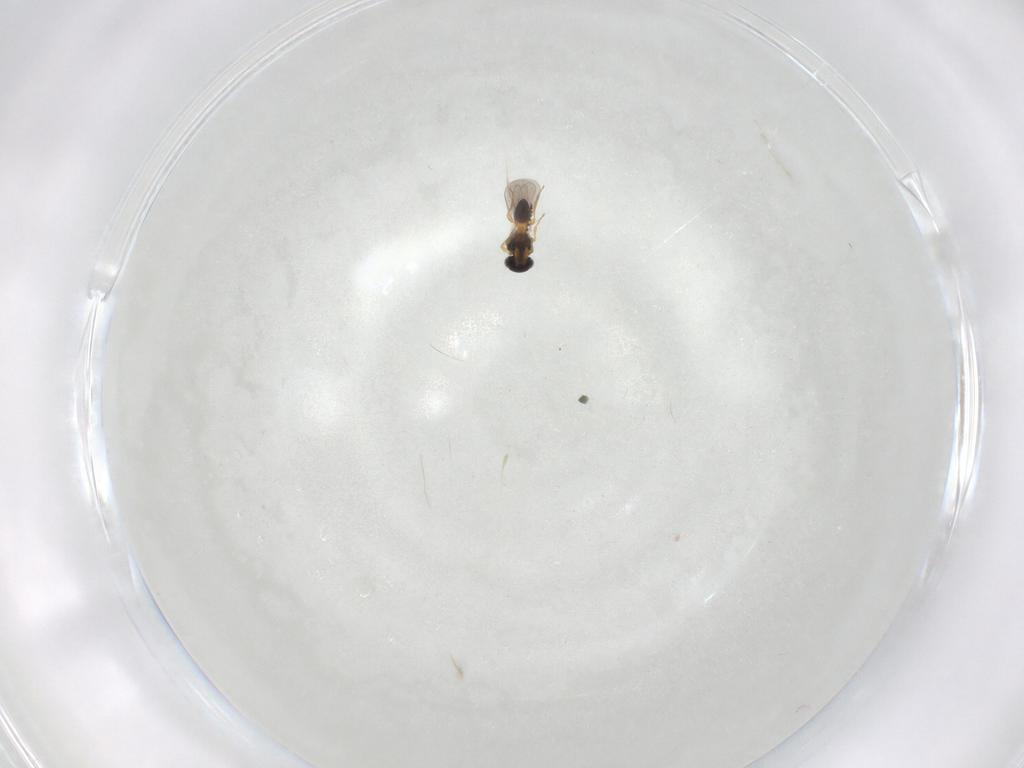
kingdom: Animalia
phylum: Arthropoda
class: Insecta
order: Hymenoptera
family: Platygastridae
